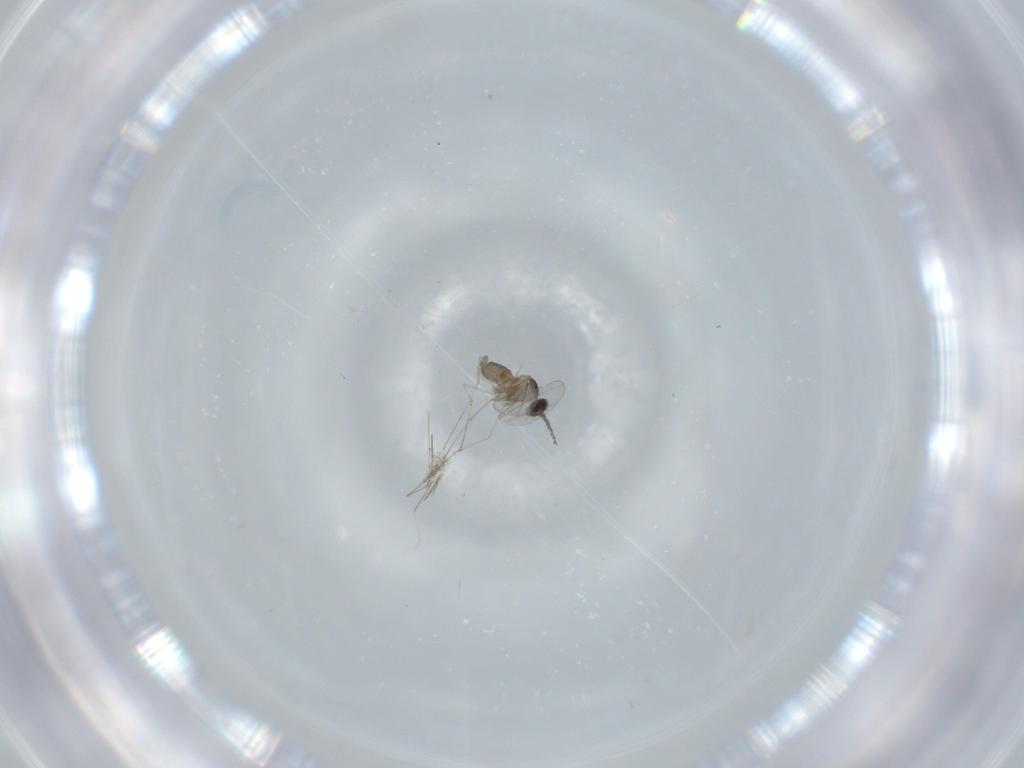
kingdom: Animalia
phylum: Arthropoda
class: Insecta
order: Diptera
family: Cecidomyiidae
